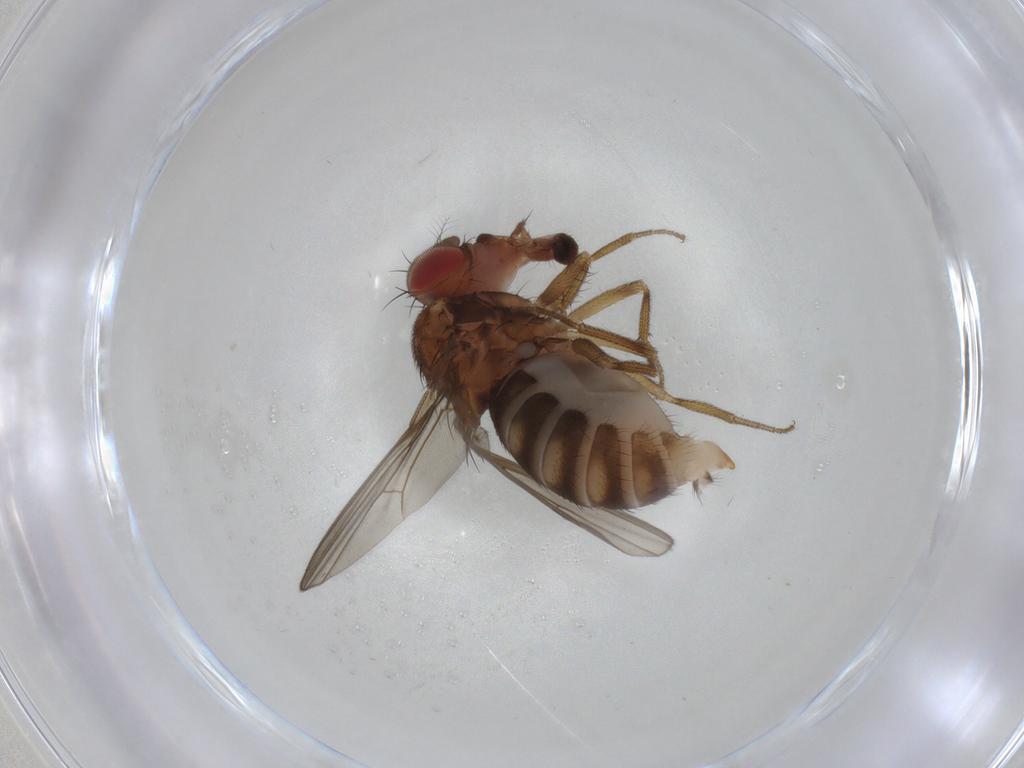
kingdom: Animalia
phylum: Arthropoda
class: Insecta
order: Diptera
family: Drosophilidae
